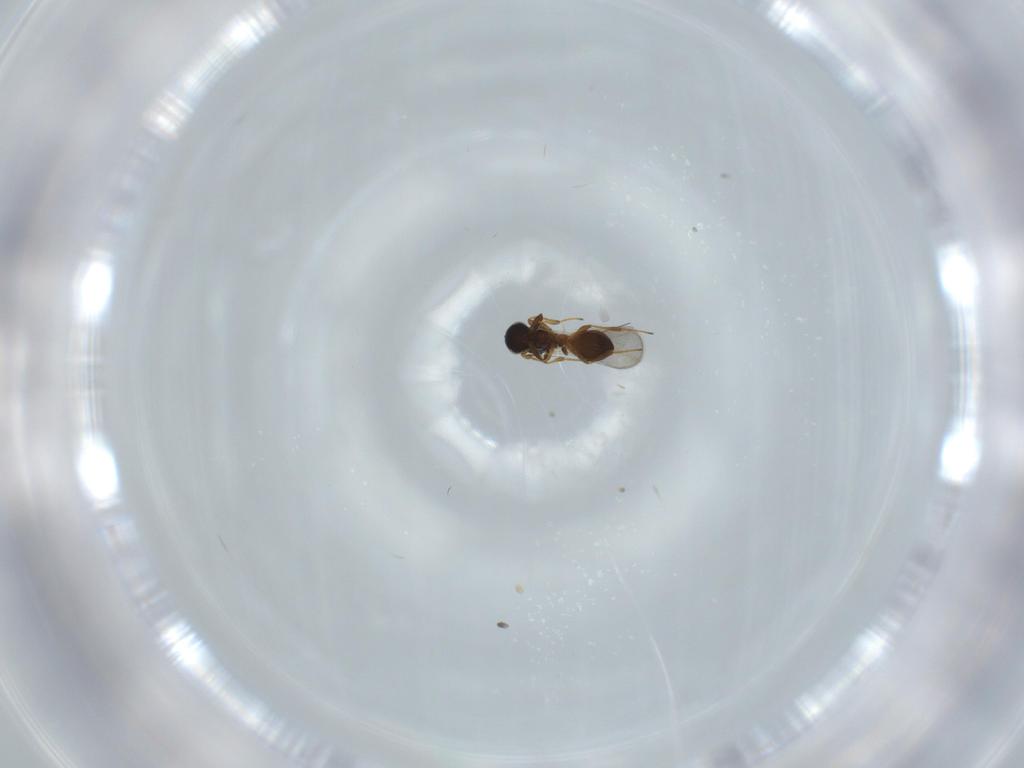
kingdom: Animalia
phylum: Arthropoda
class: Insecta
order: Hymenoptera
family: Platygastridae
